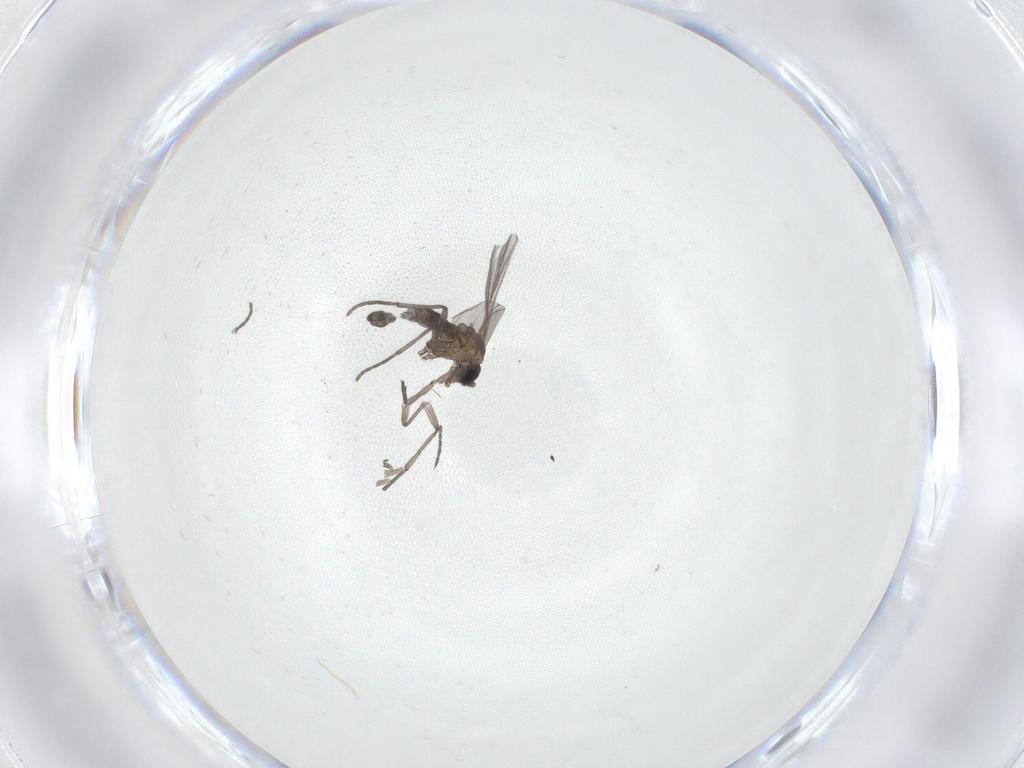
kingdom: Animalia
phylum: Arthropoda
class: Insecta
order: Diptera
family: Sciaridae
